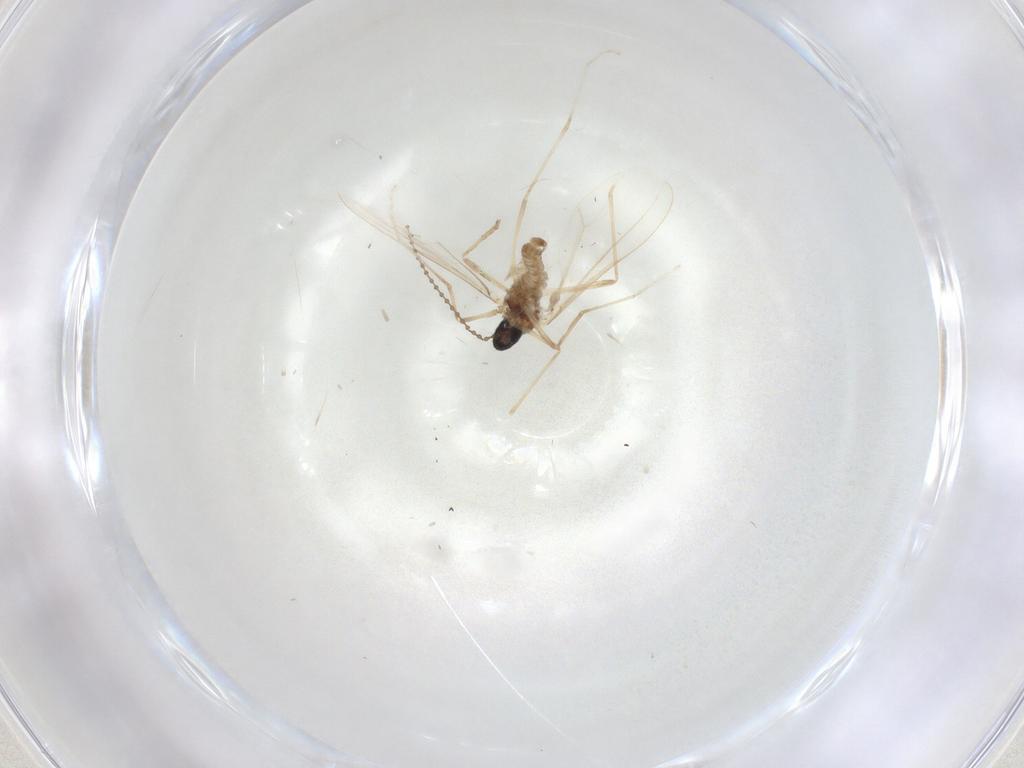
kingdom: Animalia
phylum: Arthropoda
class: Insecta
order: Diptera
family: Cecidomyiidae
